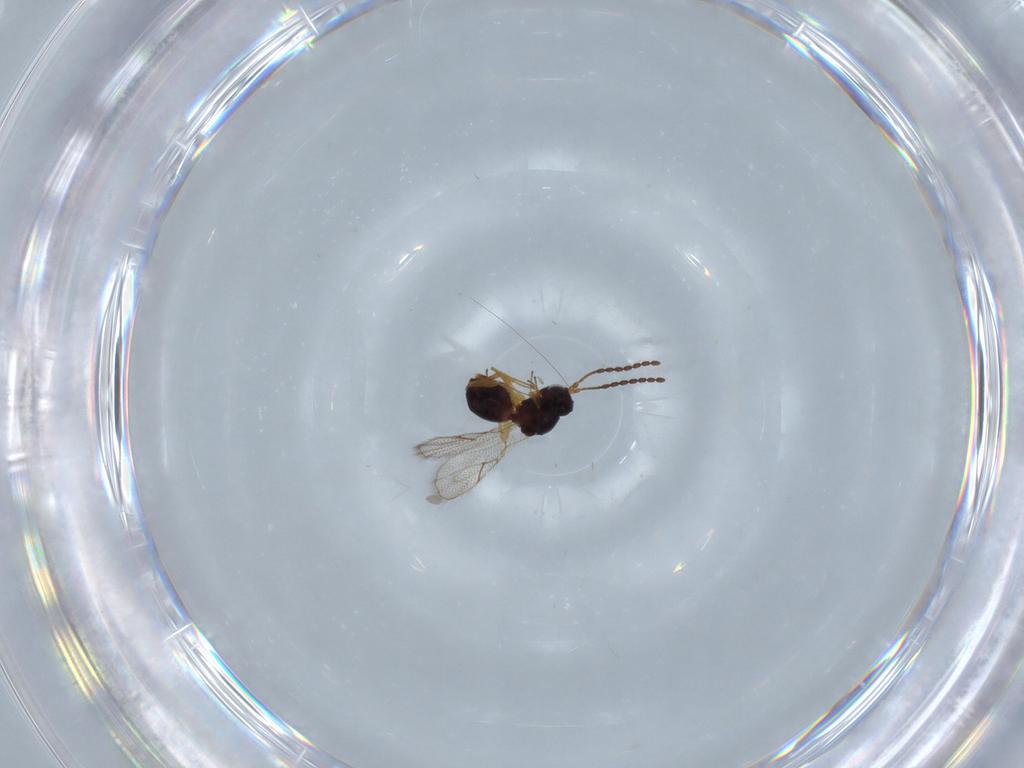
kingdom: Animalia
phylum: Arthropoda
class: Insecta
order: Hymenoptera
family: Figitidae
